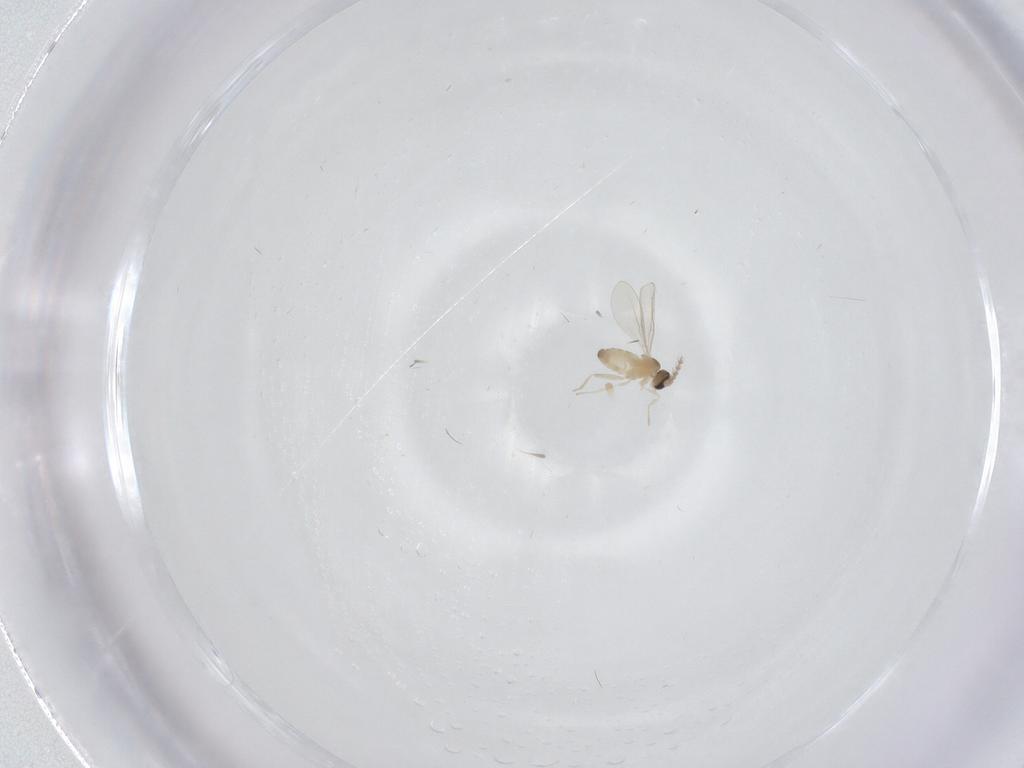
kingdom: Animalia
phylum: Arthropoda
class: Insecta
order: Diptera
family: Cecidomyiidae
